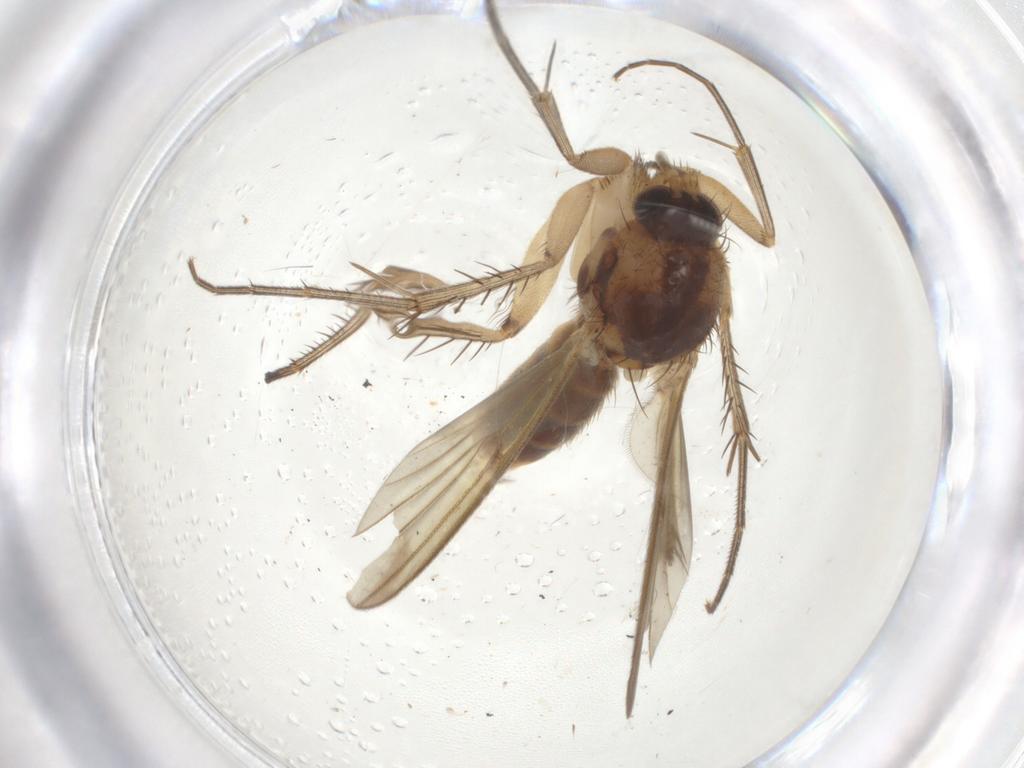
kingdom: Animalia
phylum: Arthropoda
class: Insecta
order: Diptera
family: Mycetophilidae
